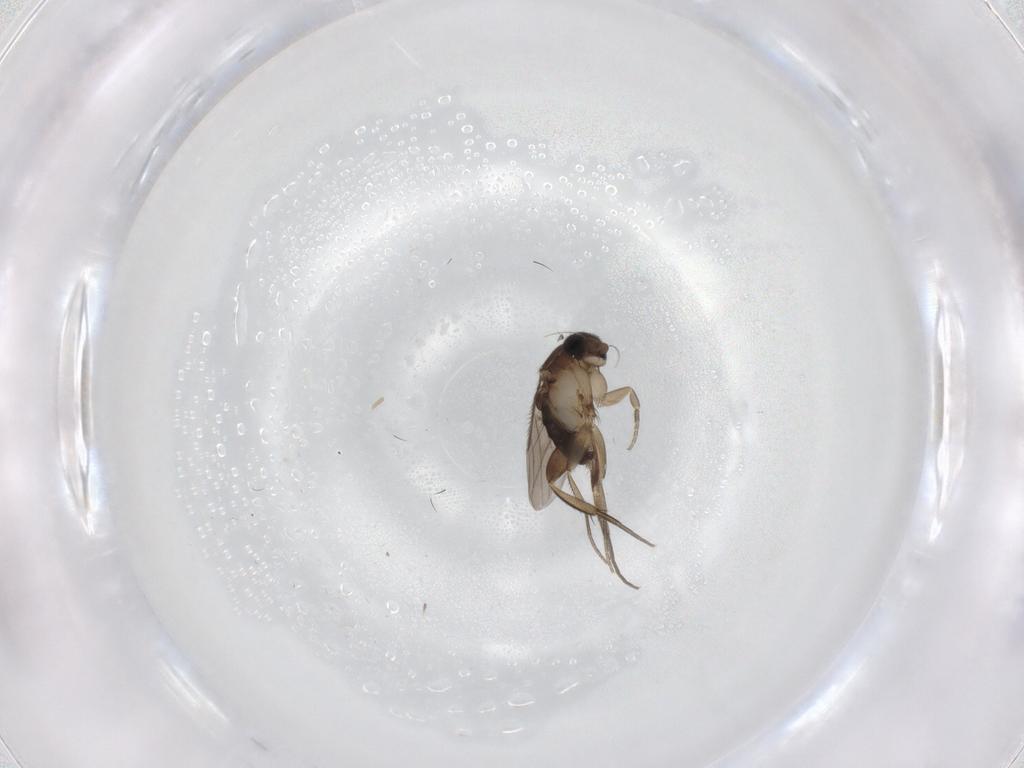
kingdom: Animalia
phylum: Arthropoda
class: Insecta
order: Diptera
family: Phoridae
